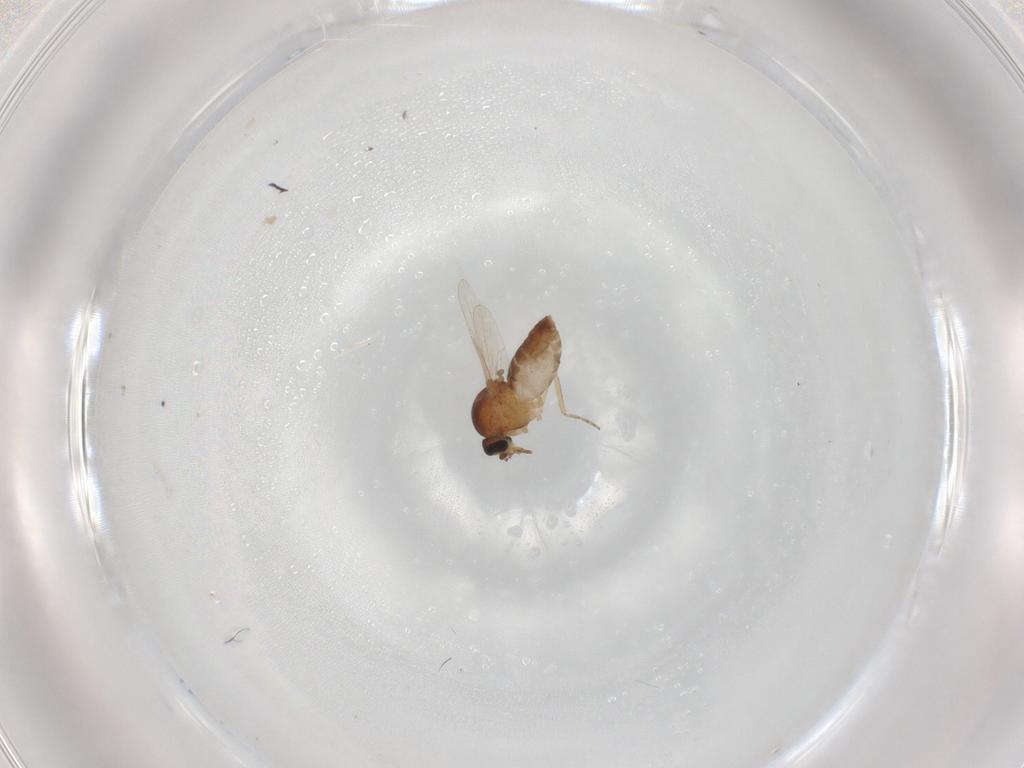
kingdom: Animalia
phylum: Arthropoda
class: Insecta
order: Diptera
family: Ceratopogonidae
